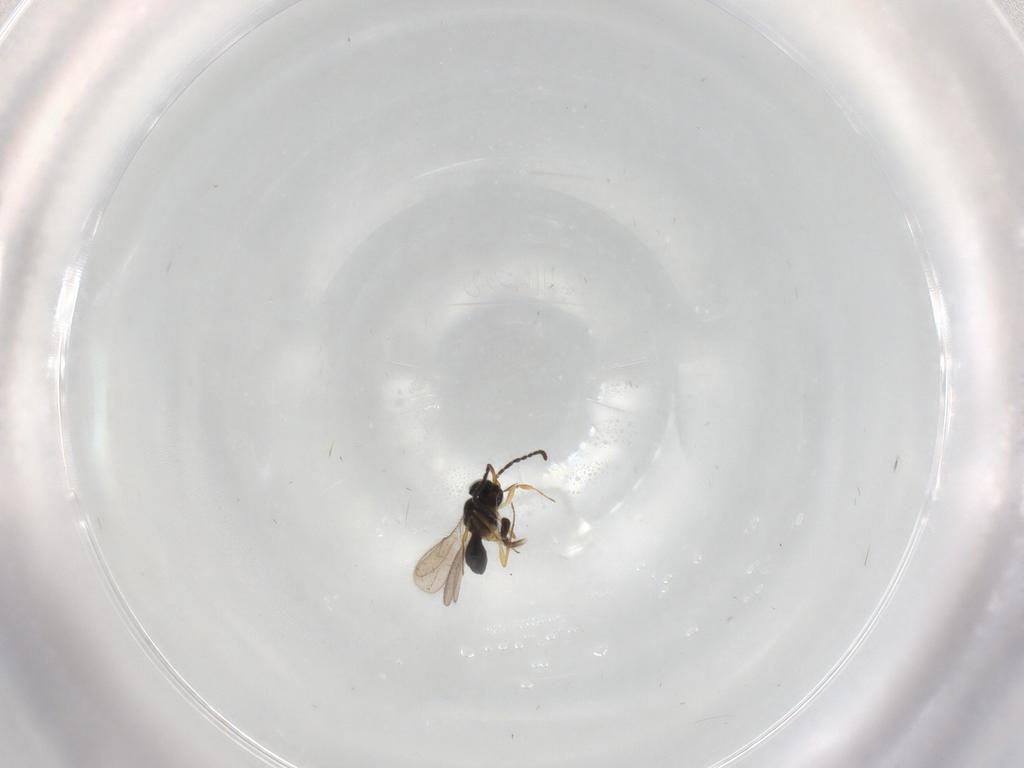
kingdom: Animalia
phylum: Arthropoda
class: Insecta
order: Hymenoptera
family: Scelionidae
